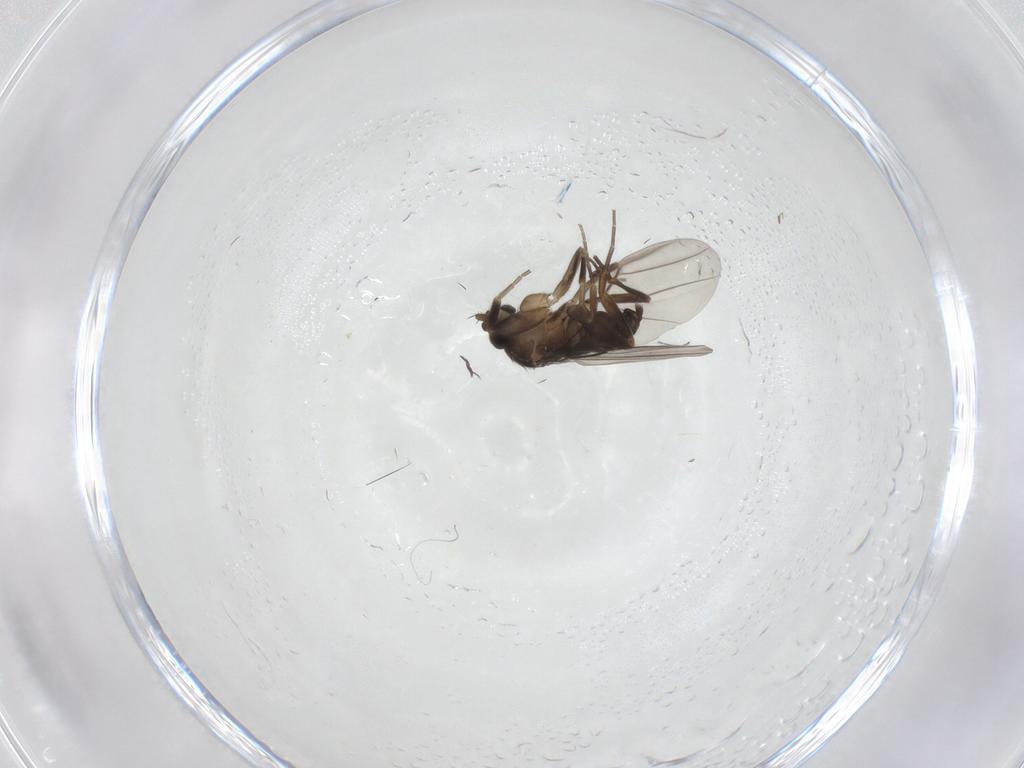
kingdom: Animalia
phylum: Arthropoda
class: Insecta
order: Diptera
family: Phoridae
